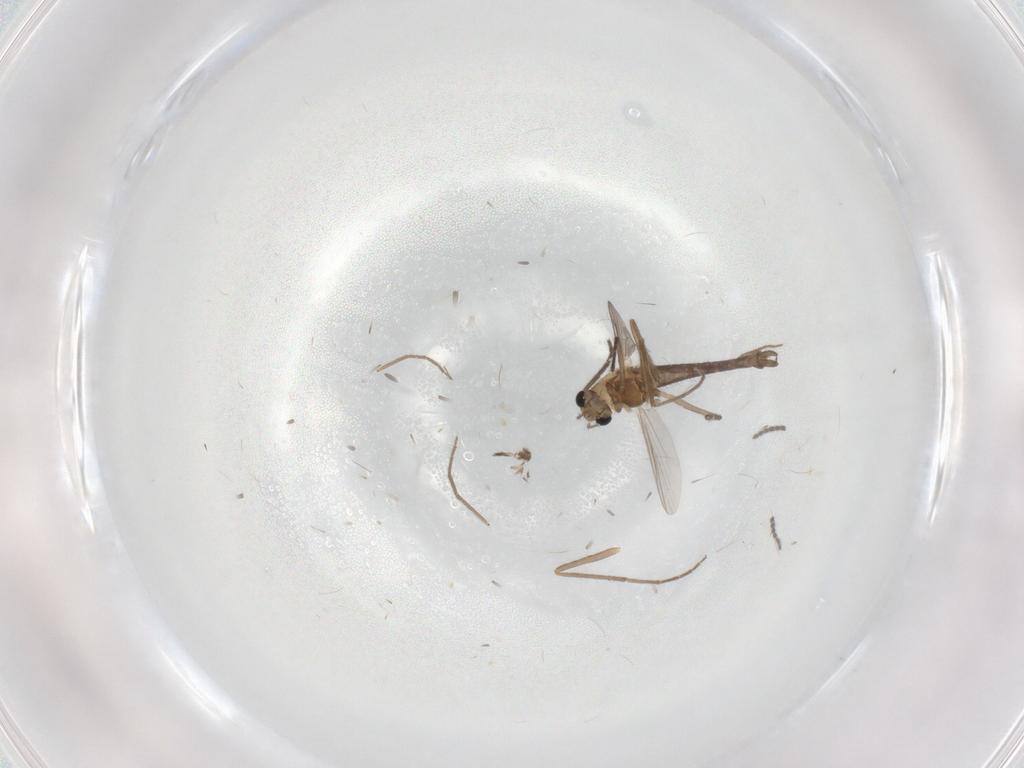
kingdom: Animalia
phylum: Arthropoda
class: Insecta
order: Diptera
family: Chironomidae
